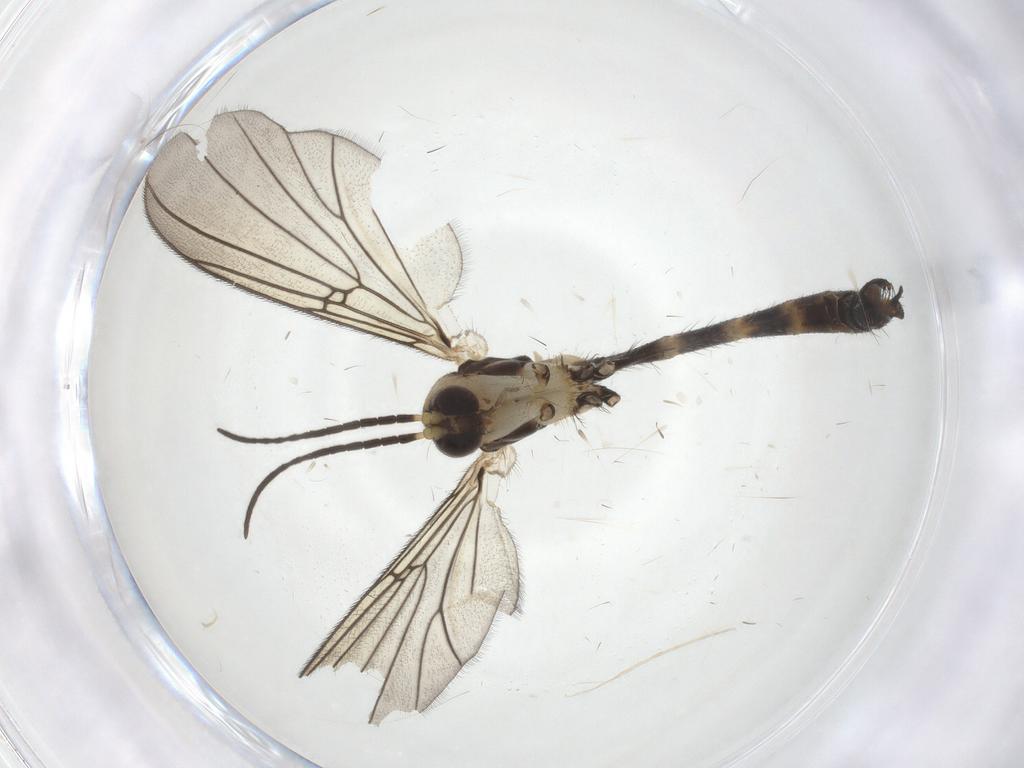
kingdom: Animalia
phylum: Arthropoda
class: Insecta
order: Diptera
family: Mycetophilidae
